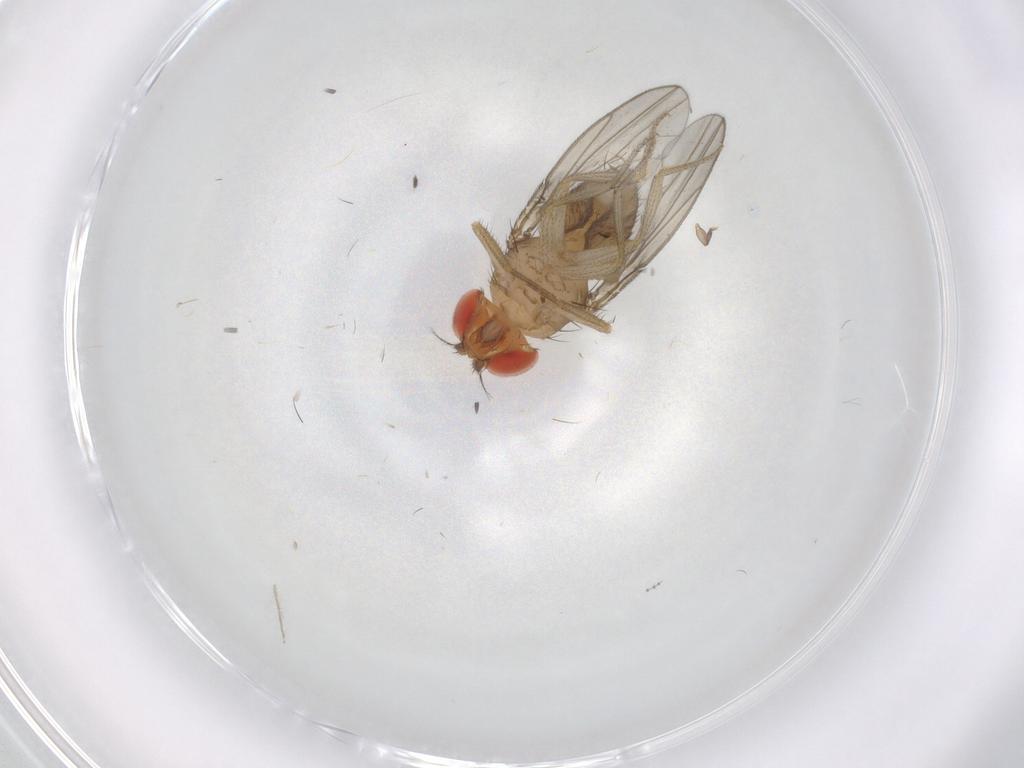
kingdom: Animalia
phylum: Arthropoda
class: Insecta
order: Diptera
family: Drosophilidae
